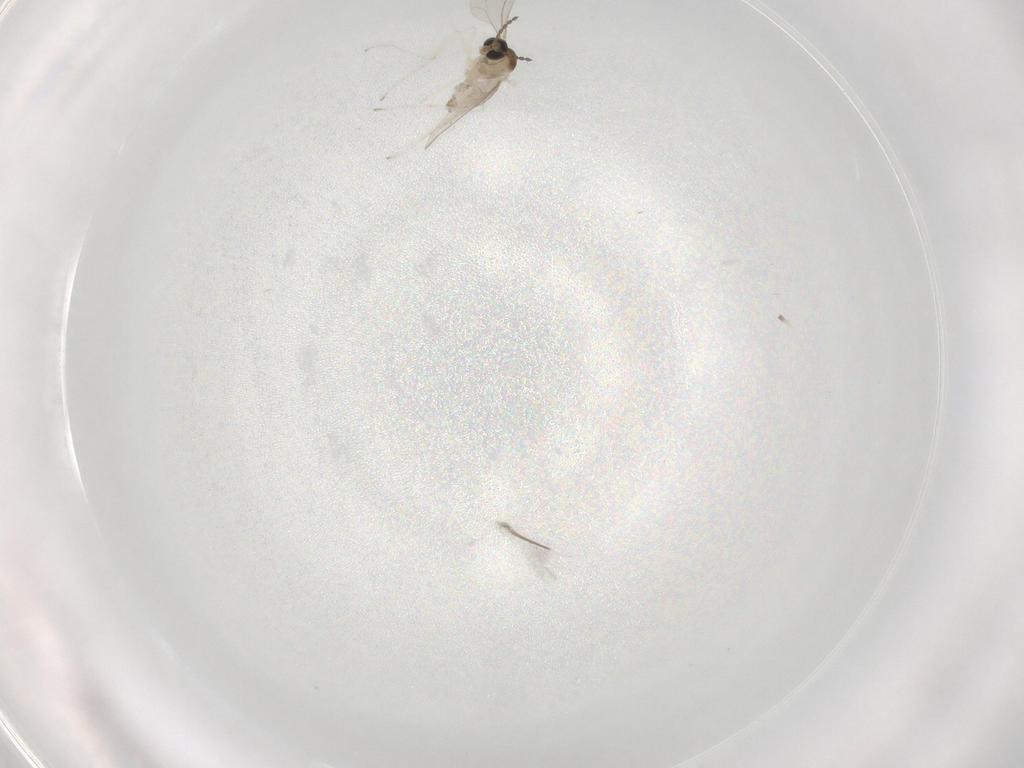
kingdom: Animalia
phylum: Arthropoda
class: Insecta
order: Diptera
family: Cecidomyiidae
